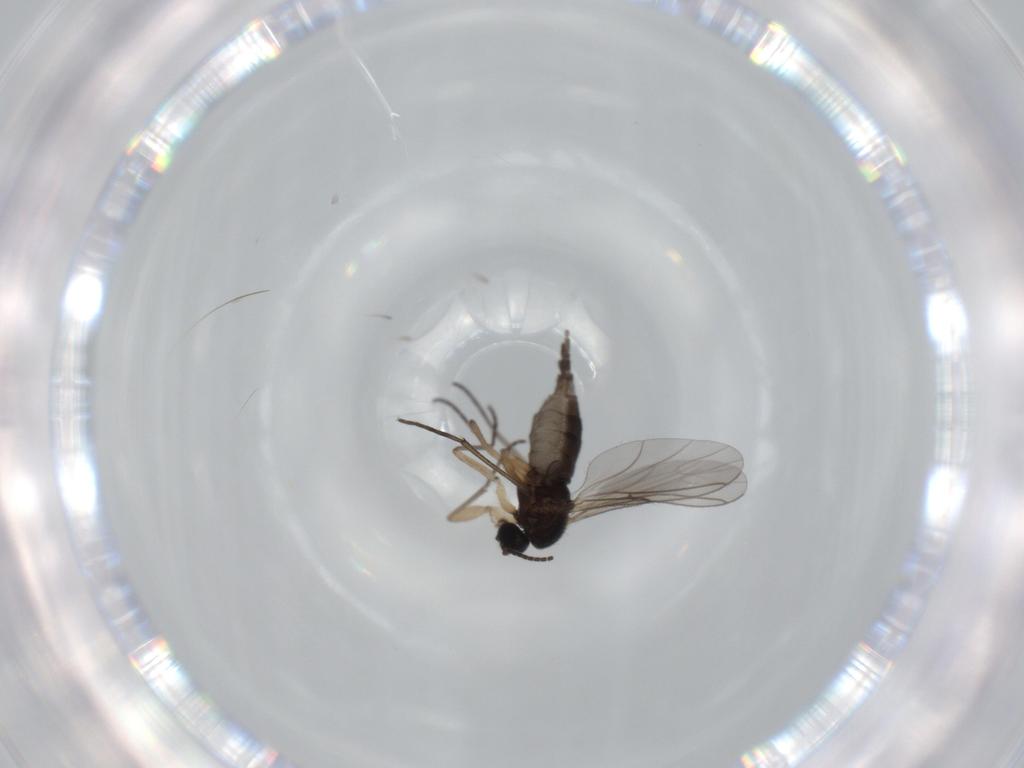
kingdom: Animalia
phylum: Arthropoda
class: Insecta
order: Diptera
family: Sciaridae
